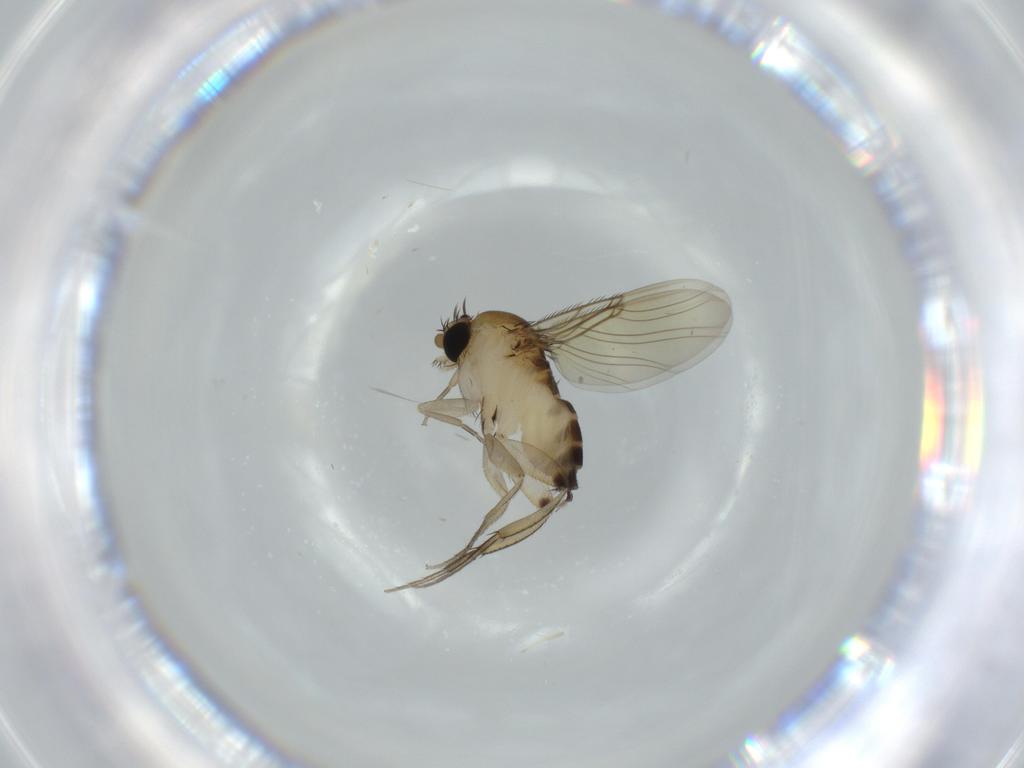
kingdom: Animalia
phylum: Arthropoda
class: Insecta
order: Diptera
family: Phoridae
